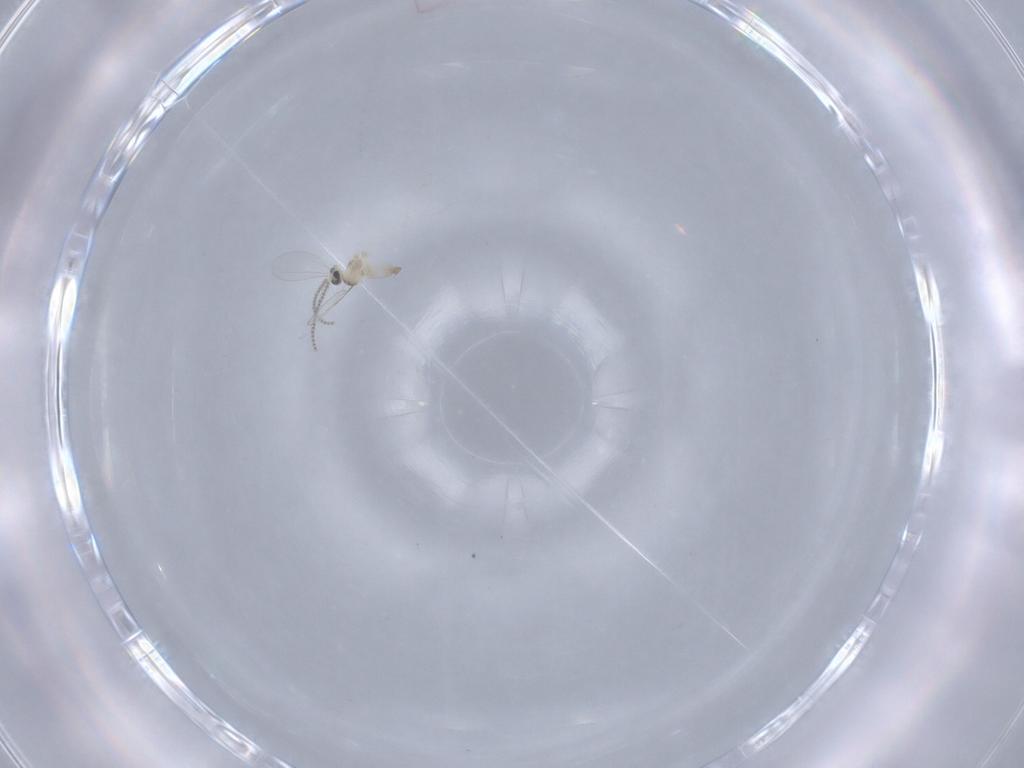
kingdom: Animalia
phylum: Arthropoda
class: Insecta
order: Diptera
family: Cecidomyiidae
